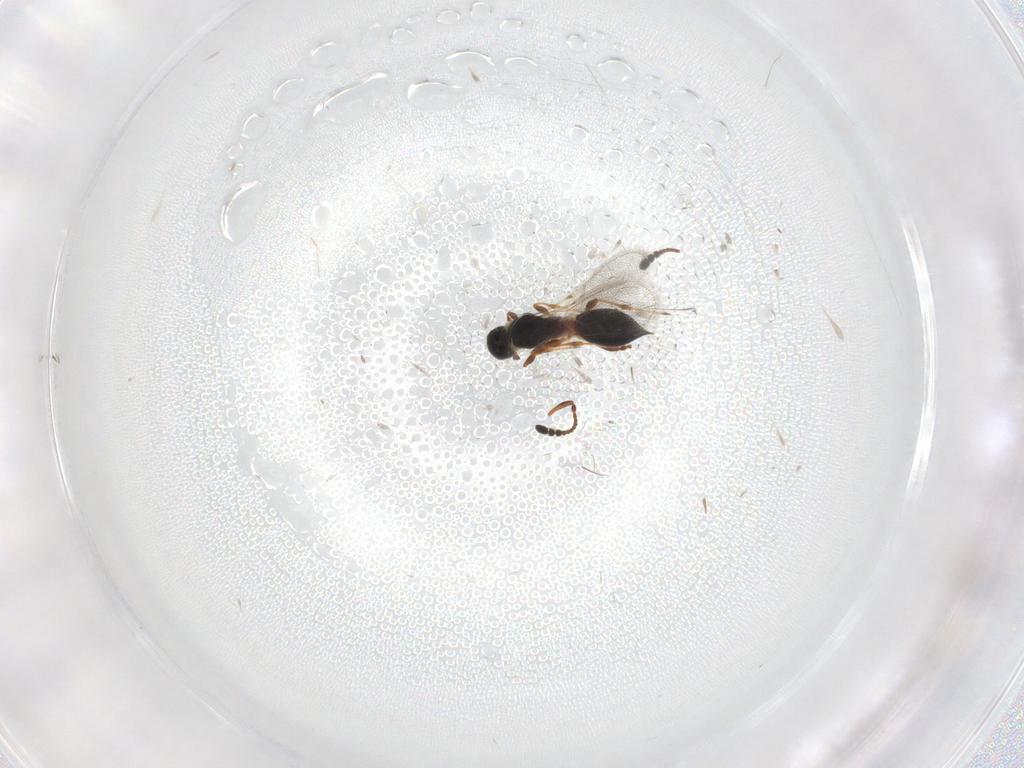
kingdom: Animalia
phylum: Arthropoda
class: Insecta
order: Hymenoptera
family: Diapriidae
